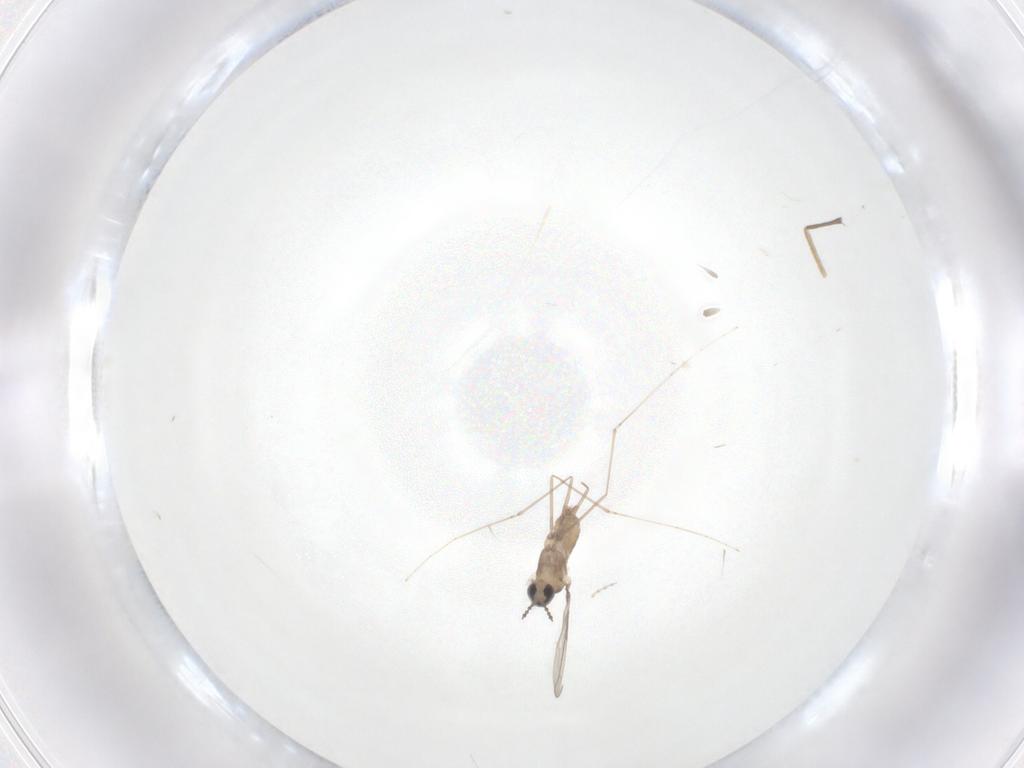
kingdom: Animalia
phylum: Arthropoda
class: Insecta
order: Diptera
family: Cecidomyiidae
